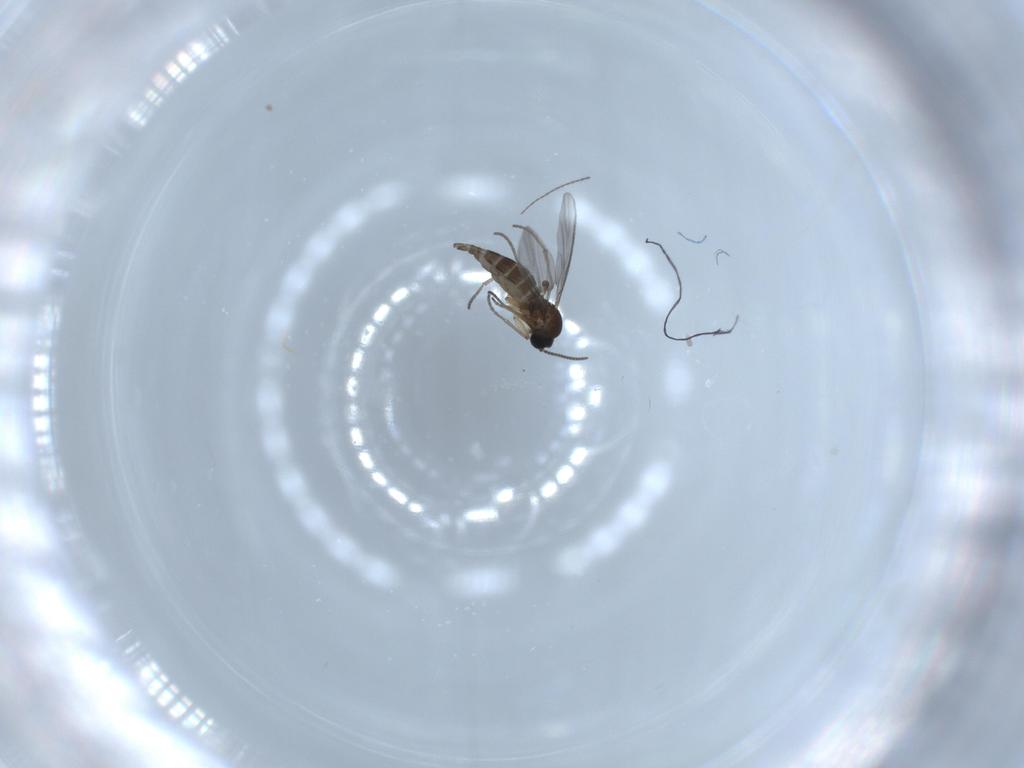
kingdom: Animalia
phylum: Arthropoda
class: Insecta
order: Diptera
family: Sciaridae
